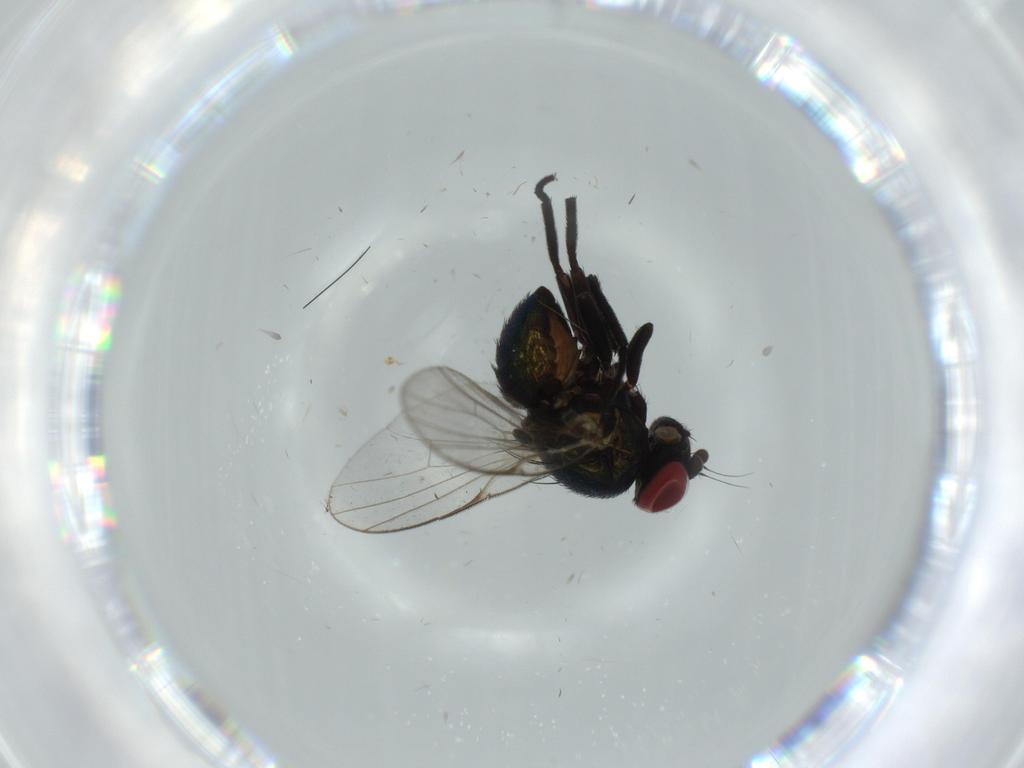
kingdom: Animalia
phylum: Arthropoda
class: Insecta
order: Diptera
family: Agromyzidae
